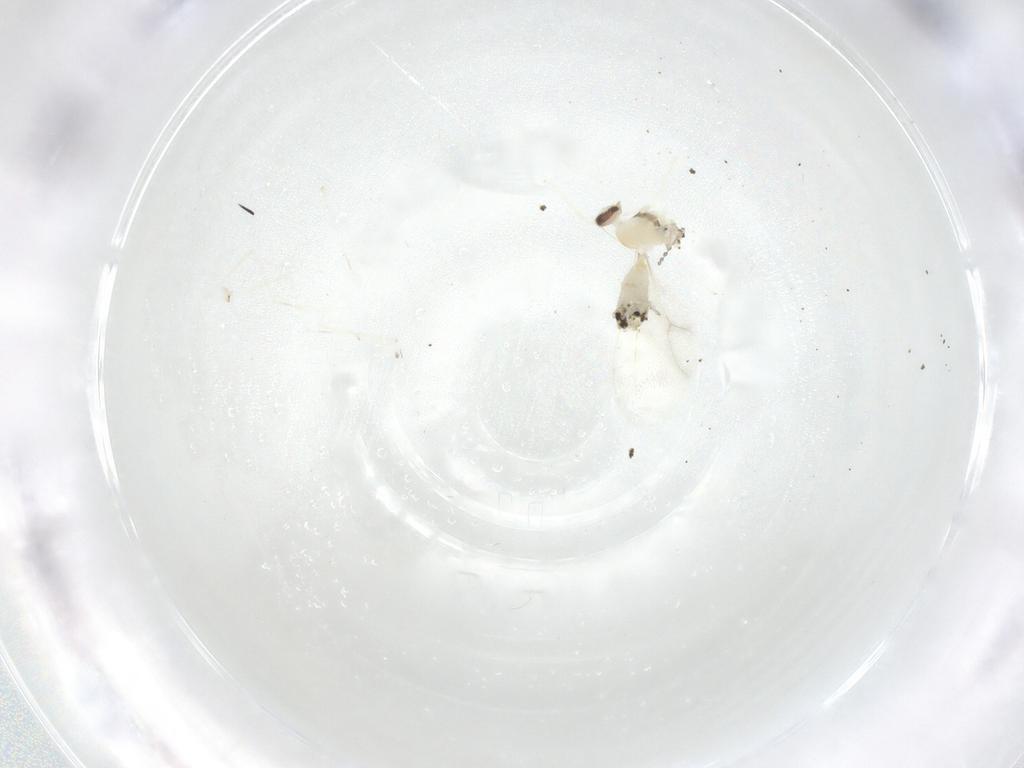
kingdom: Animalia
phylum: Arthropoda
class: Insecta
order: Diptera
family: Cecidomyiidae
